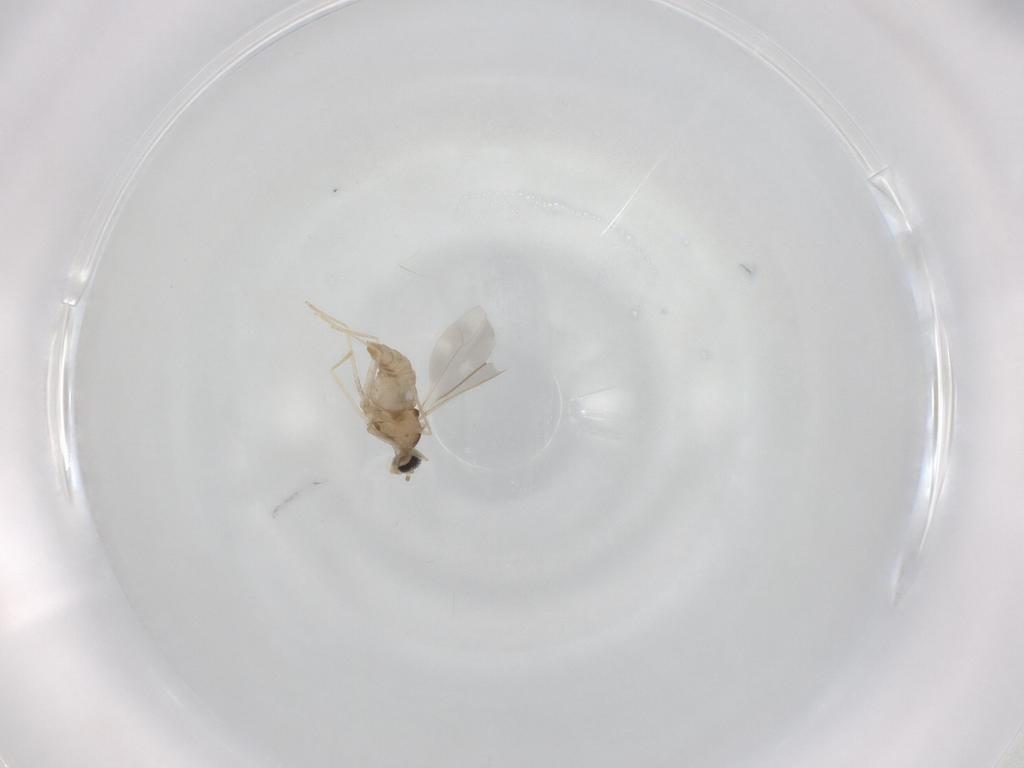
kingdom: Animalia
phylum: Arthropoda
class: Insecta
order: Diptera
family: Cecidomyiidae
